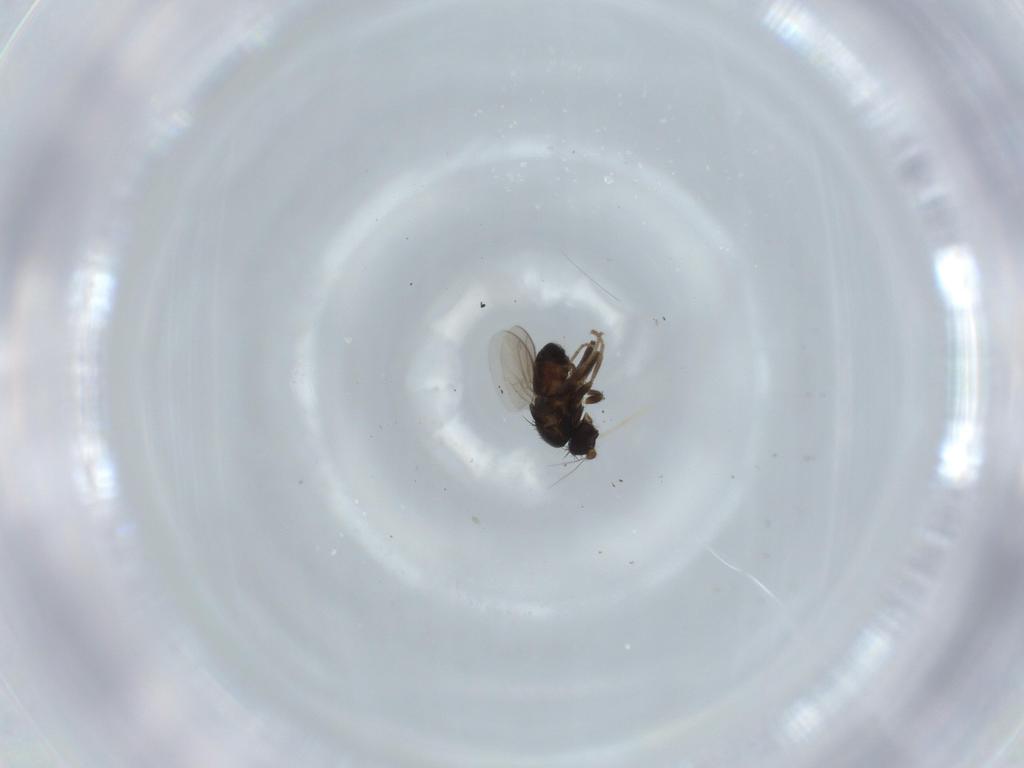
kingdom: Animalia
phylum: Arthropoda
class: Insecta
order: Diptera
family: Sphaeroceridae
